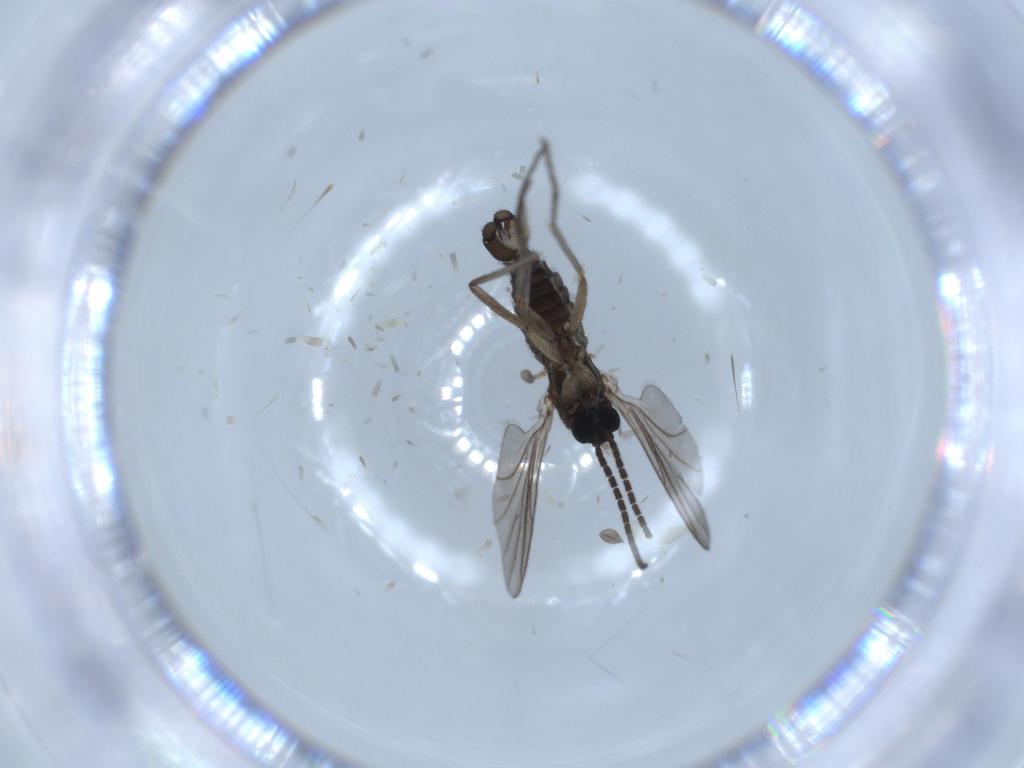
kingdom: Animalia
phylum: Arthropoda
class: Insecta
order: Diptera
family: Sciaridae
